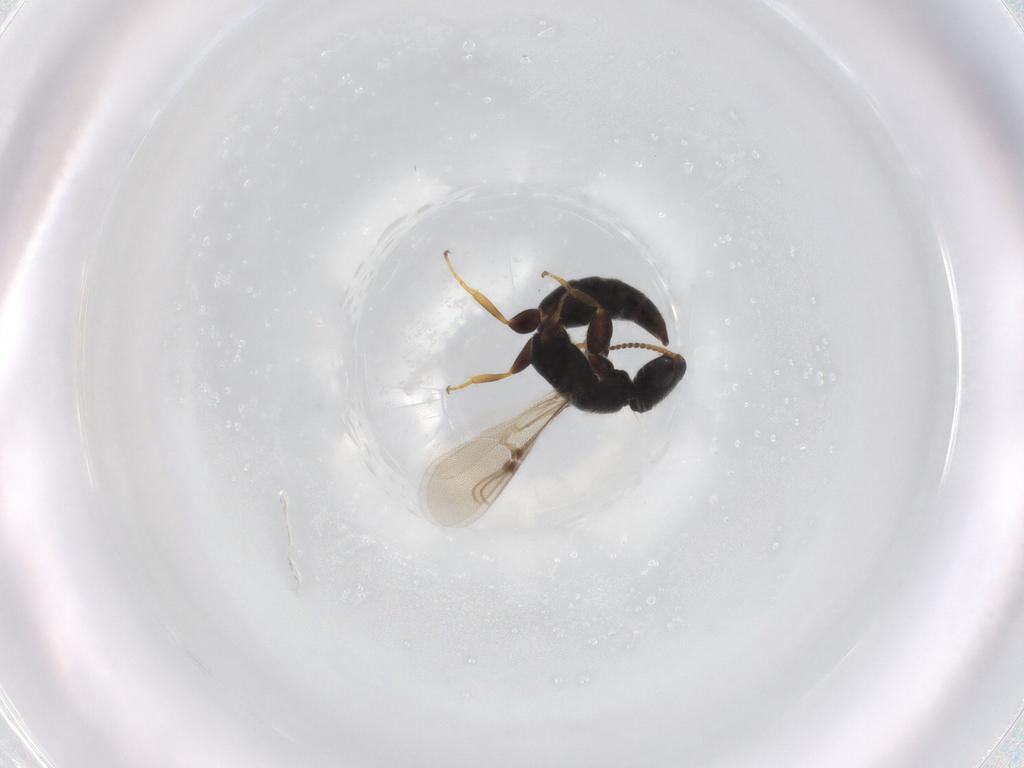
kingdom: Animalia
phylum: Arthropoda
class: Insecta
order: Hymenoptera
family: Bethylidae
